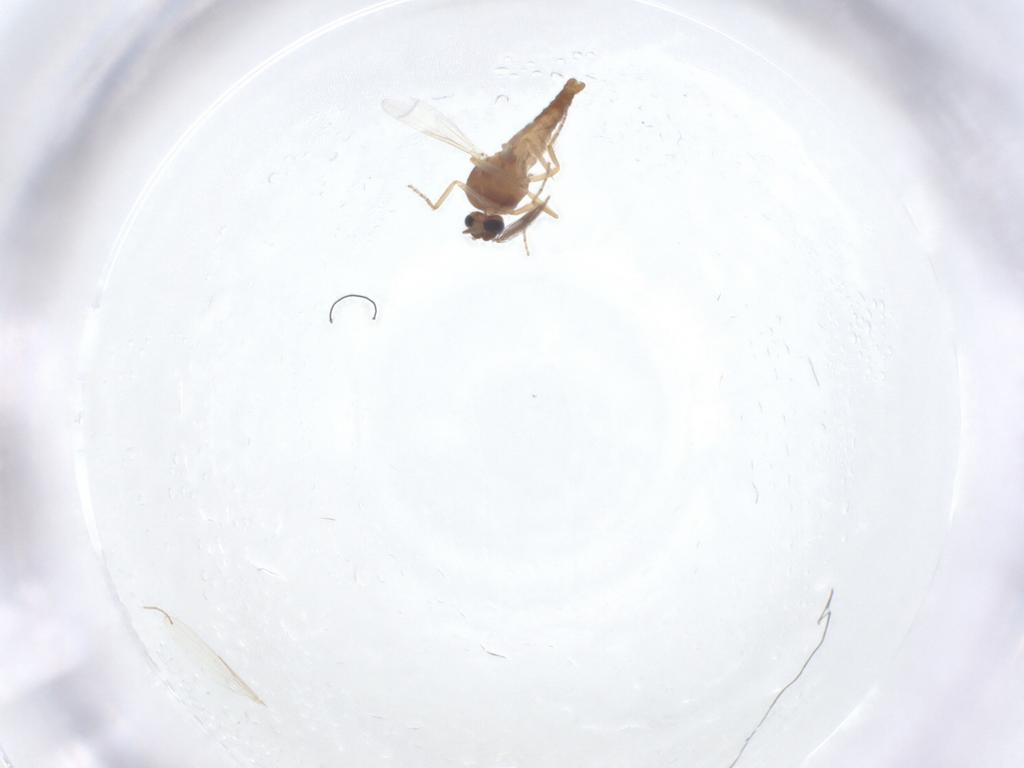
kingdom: Animalia
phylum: Arthropoda
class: Insecta
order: Diptera
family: Ceratopogonidae
